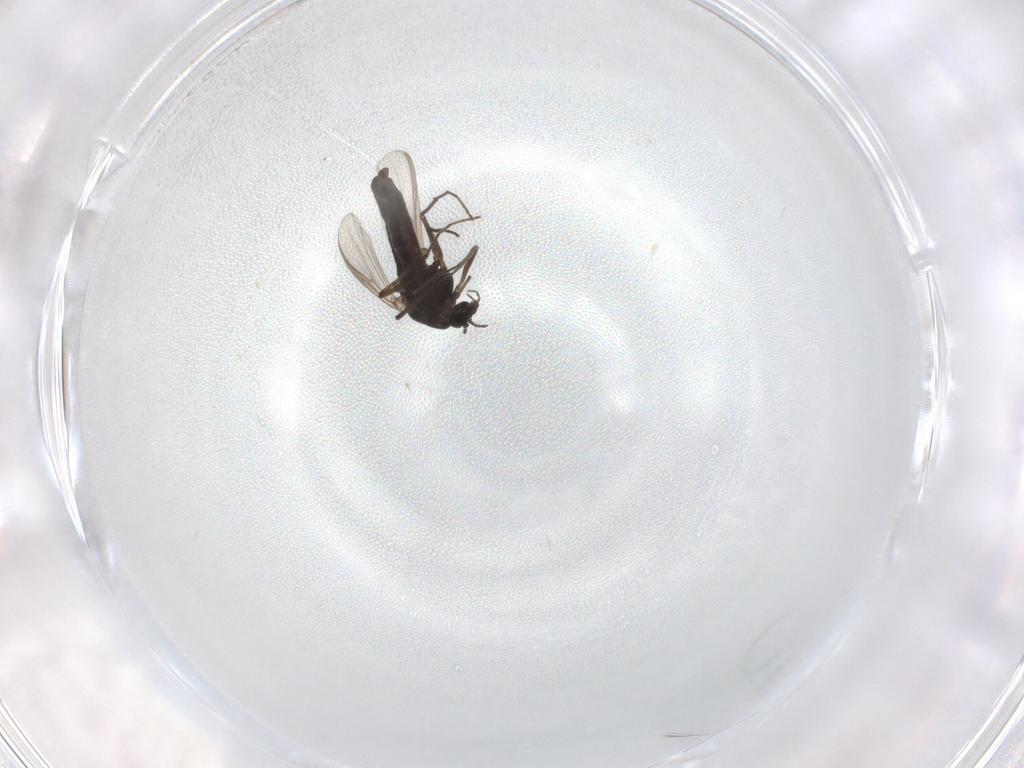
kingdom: Animalia
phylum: Arthropoda
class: Insecta
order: Diptera
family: Chironomidae
